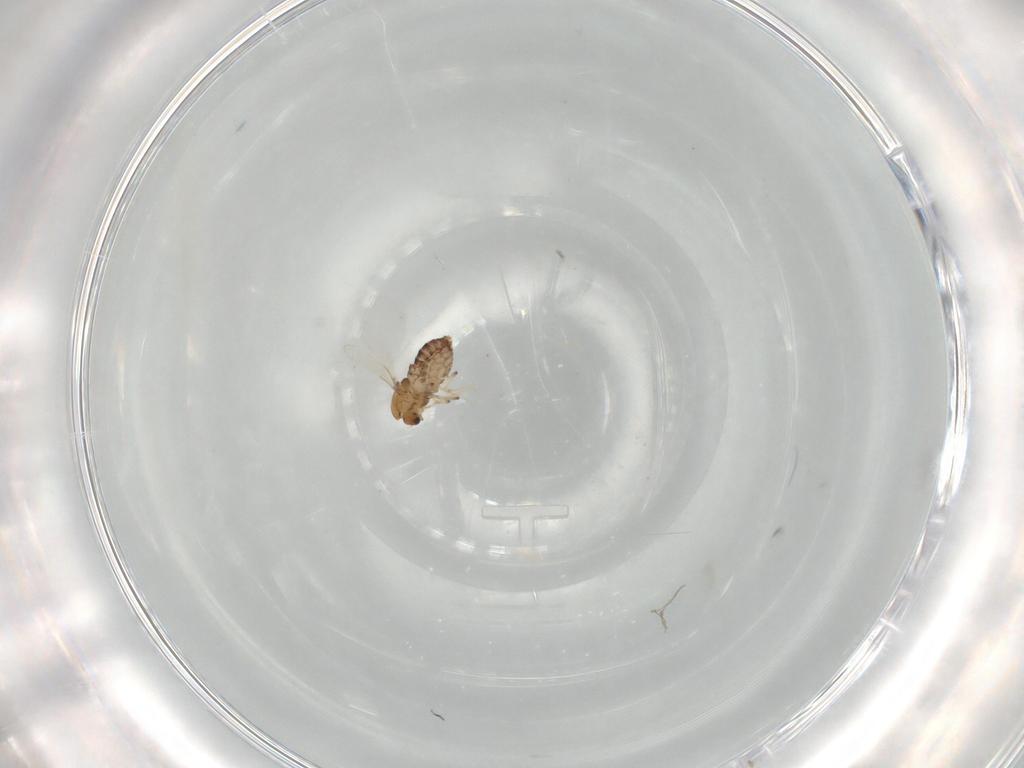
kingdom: Animalia
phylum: Arthropoda
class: Insecta
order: Diptera
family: Chironomidae
